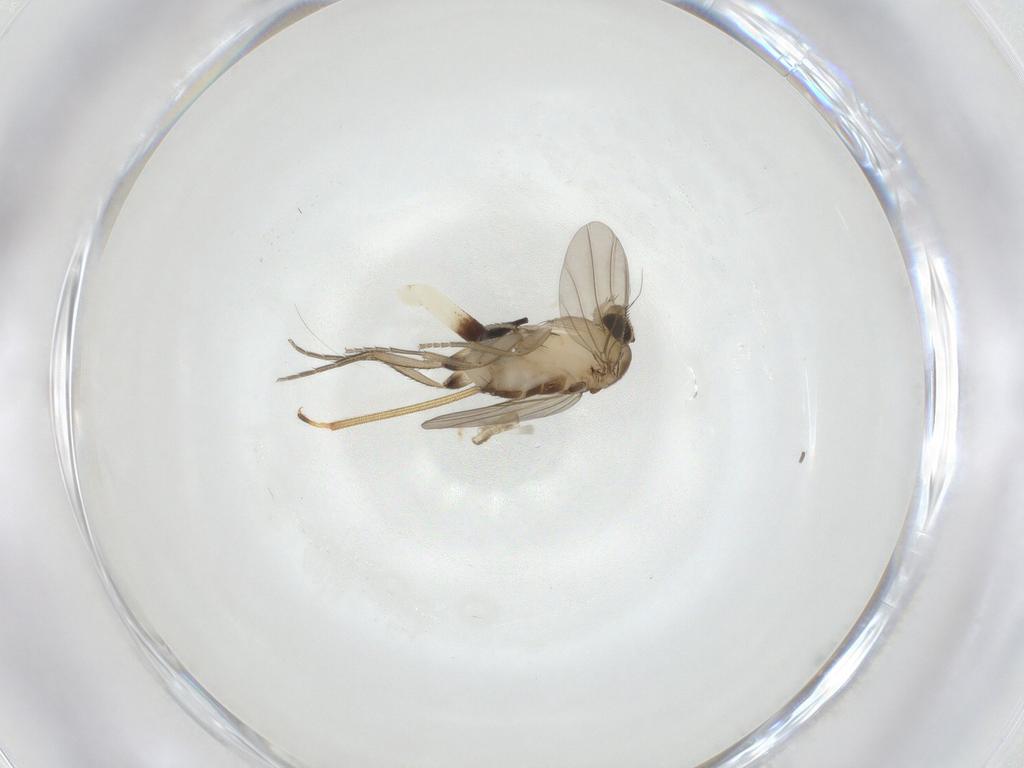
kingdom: Animalia
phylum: Arthropoda
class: Insecta
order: Diptera
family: Phoridae
